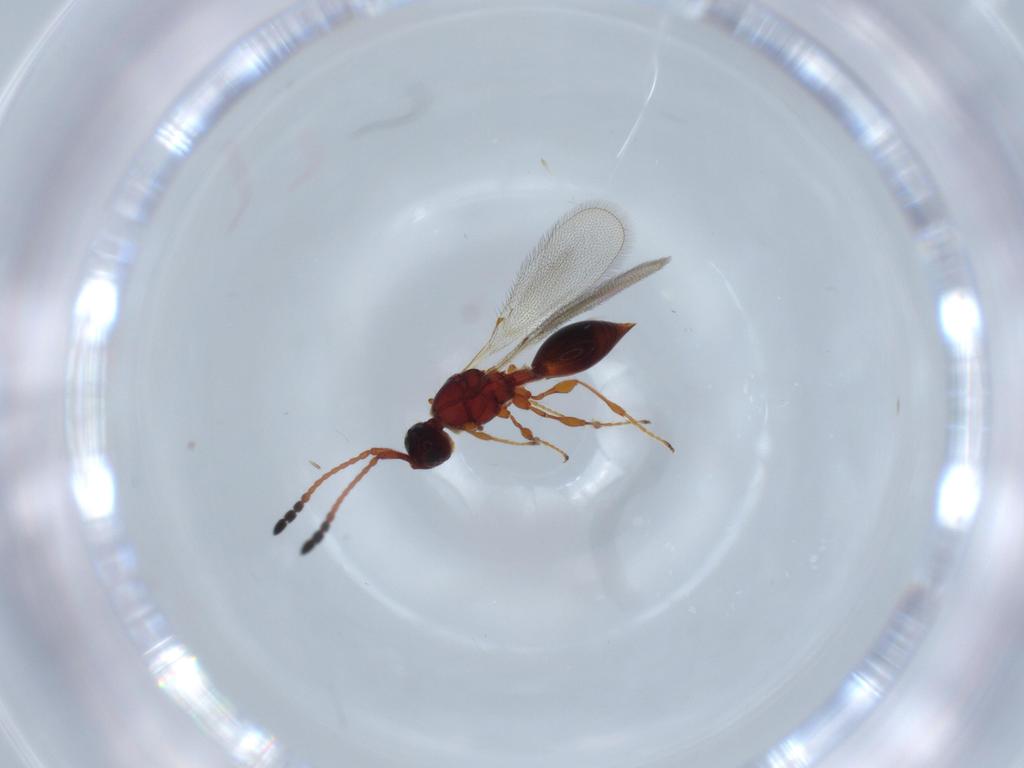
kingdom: Animalia
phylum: Arthropoda
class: Insecta
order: Hymenoptera
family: Diapriidae
